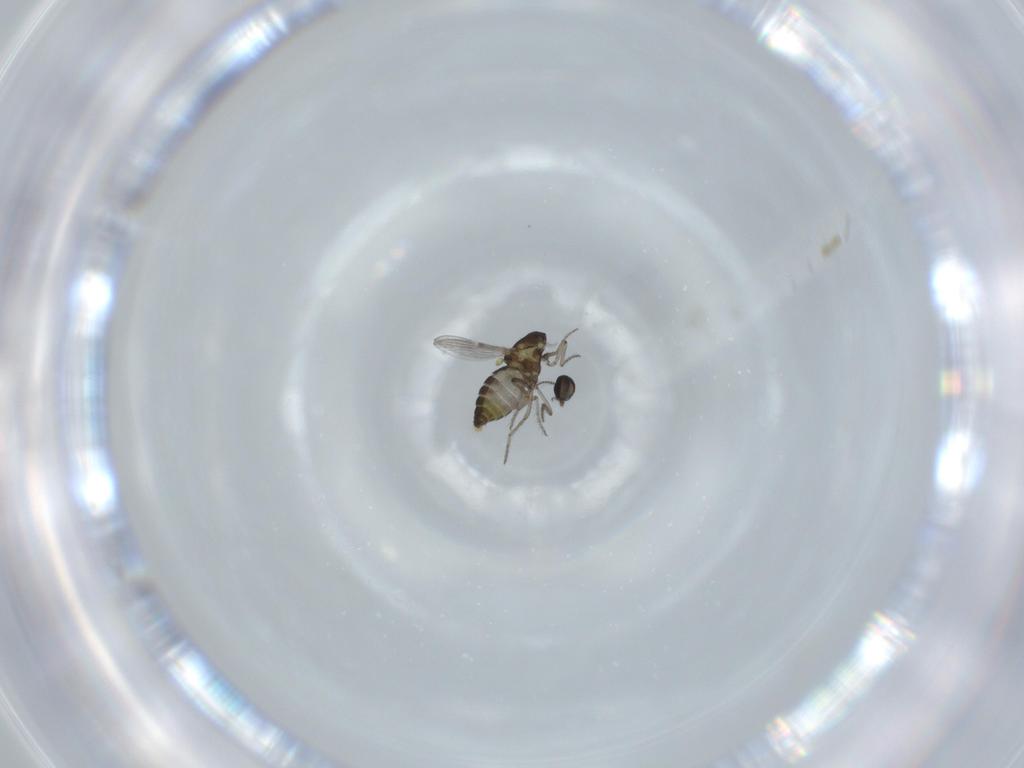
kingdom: Animalia
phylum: Arthropoda
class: Insecta
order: Diptera
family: Ceratopogonidae
